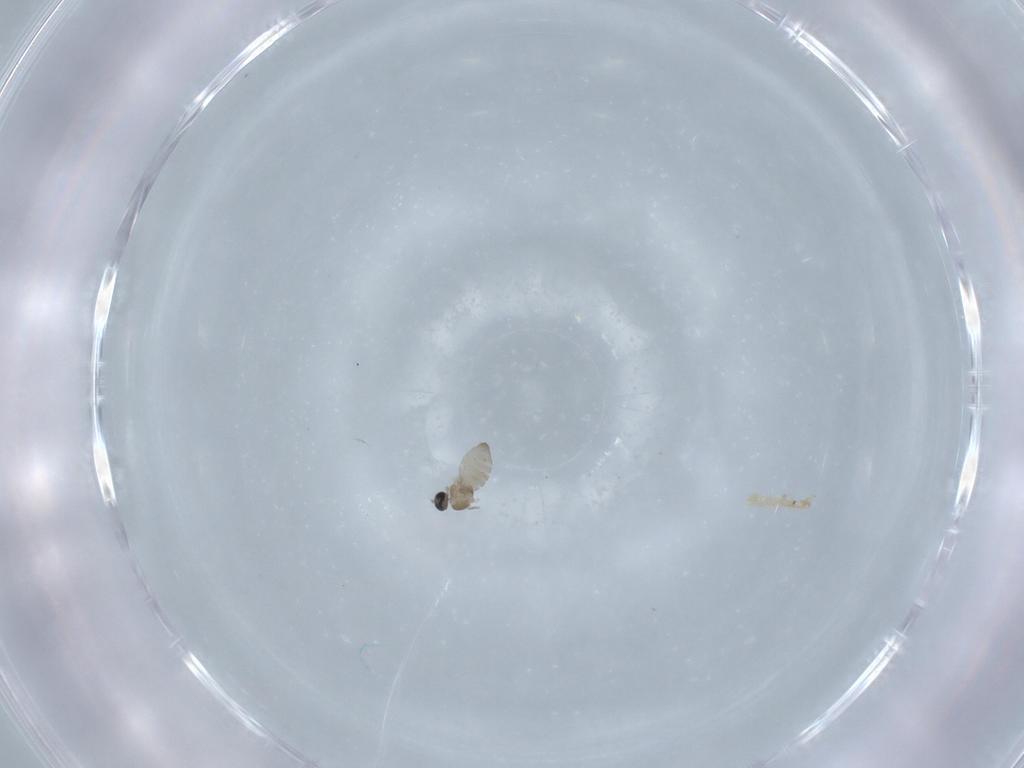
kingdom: Animalia
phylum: Arthropoda
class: Insecta
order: Diptera
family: Cecidomyiidae
